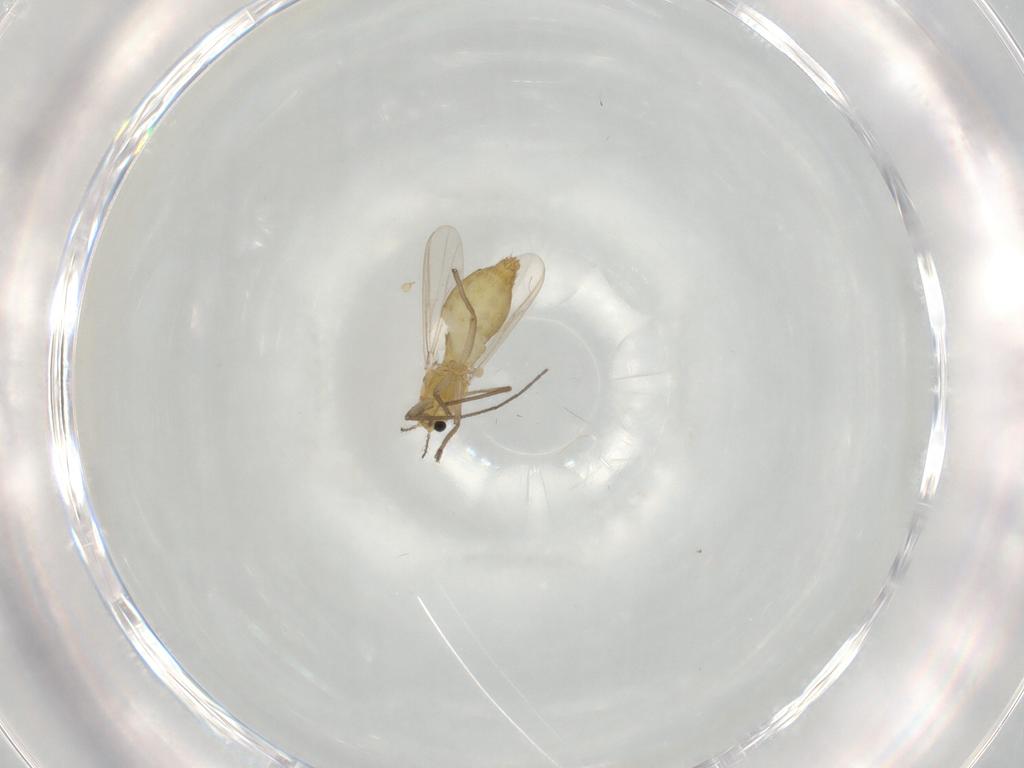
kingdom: Animalia
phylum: Arthropoda
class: Insecta
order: Diptera
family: Chironomidae
